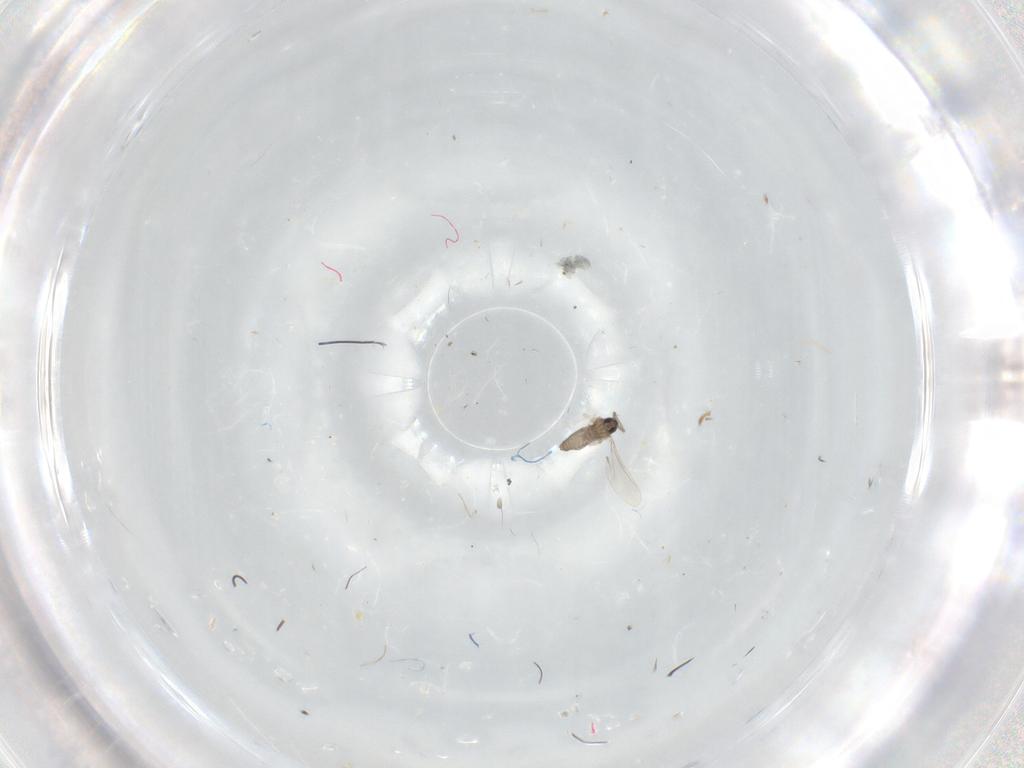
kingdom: Animalia
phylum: Arthropoda
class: Insecta
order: Diptera
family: Cecidomyiidae
